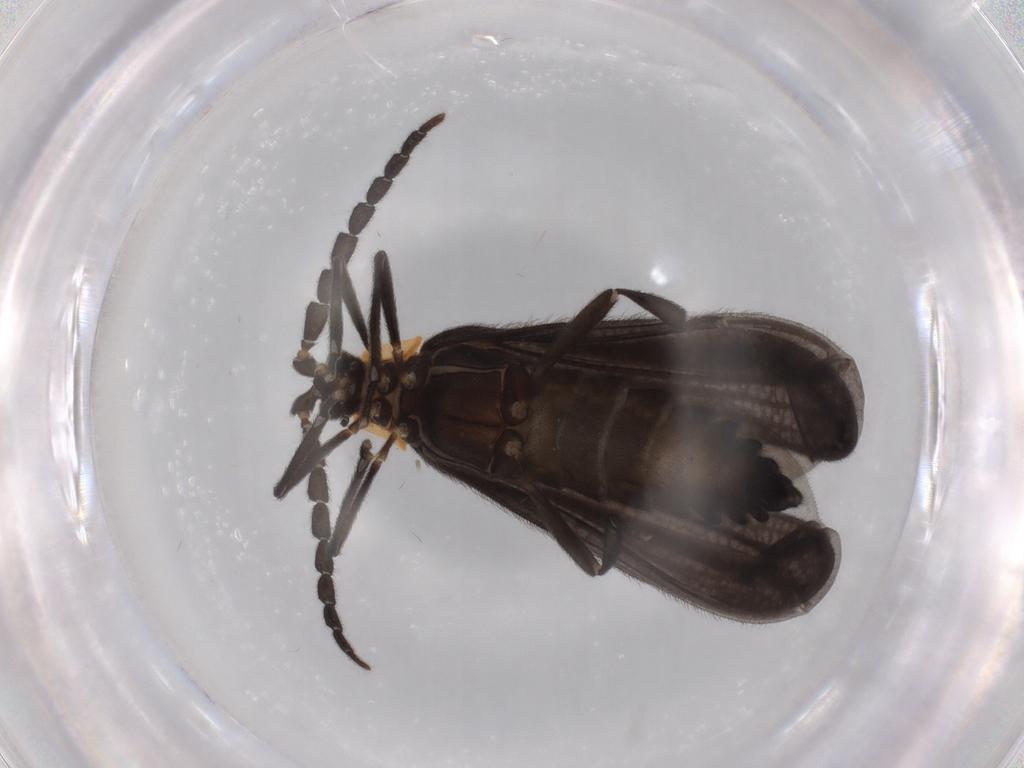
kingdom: Animalia
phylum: Arthropoda
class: Insecta
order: Coleoptera
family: Lycidae
